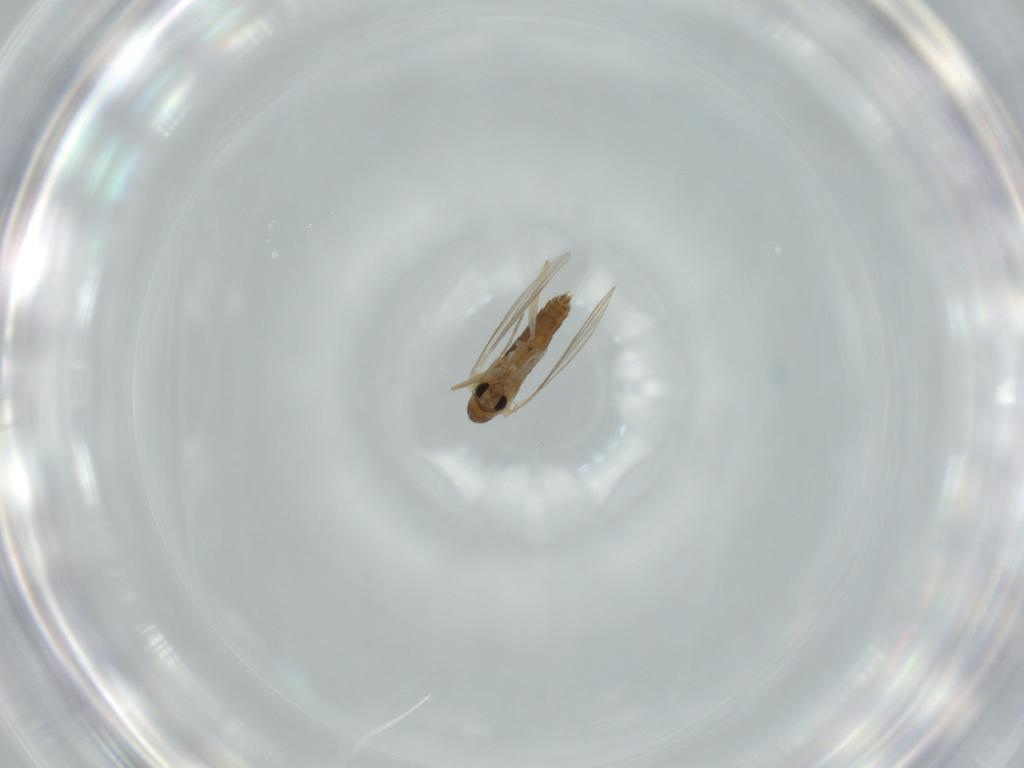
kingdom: Animalia
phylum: Arthropoda
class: Insecta
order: Diptera
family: Psychodidae
